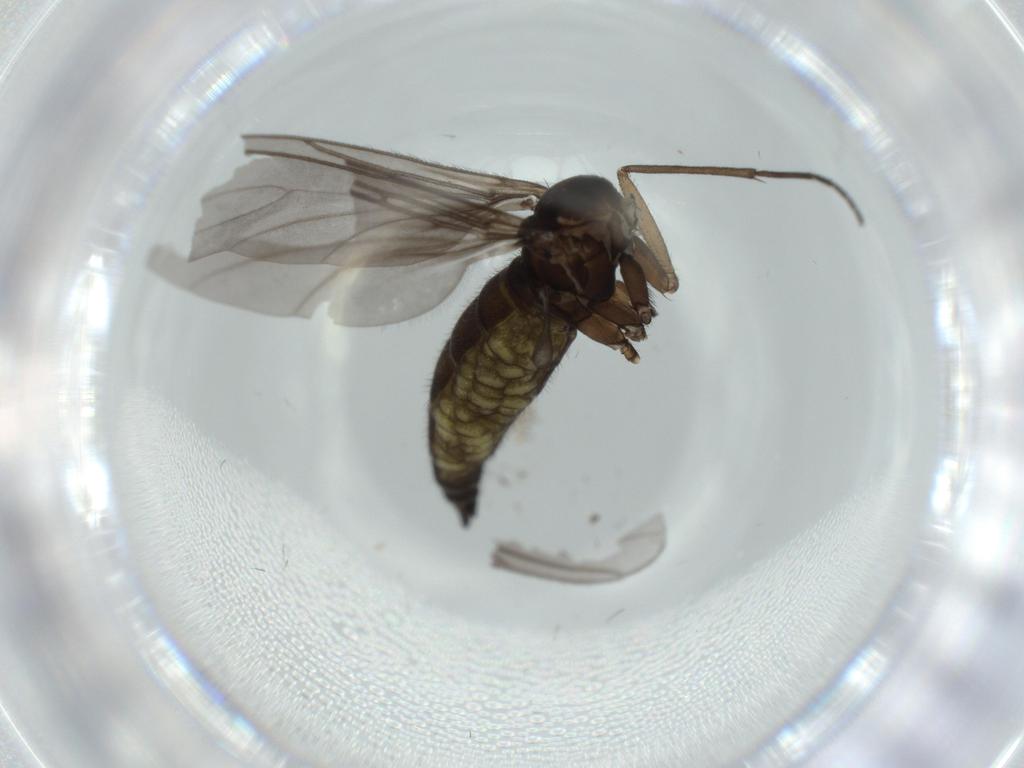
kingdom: Animalia
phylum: Arthropoda
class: Insecta
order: Diptera
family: Sciaridae
